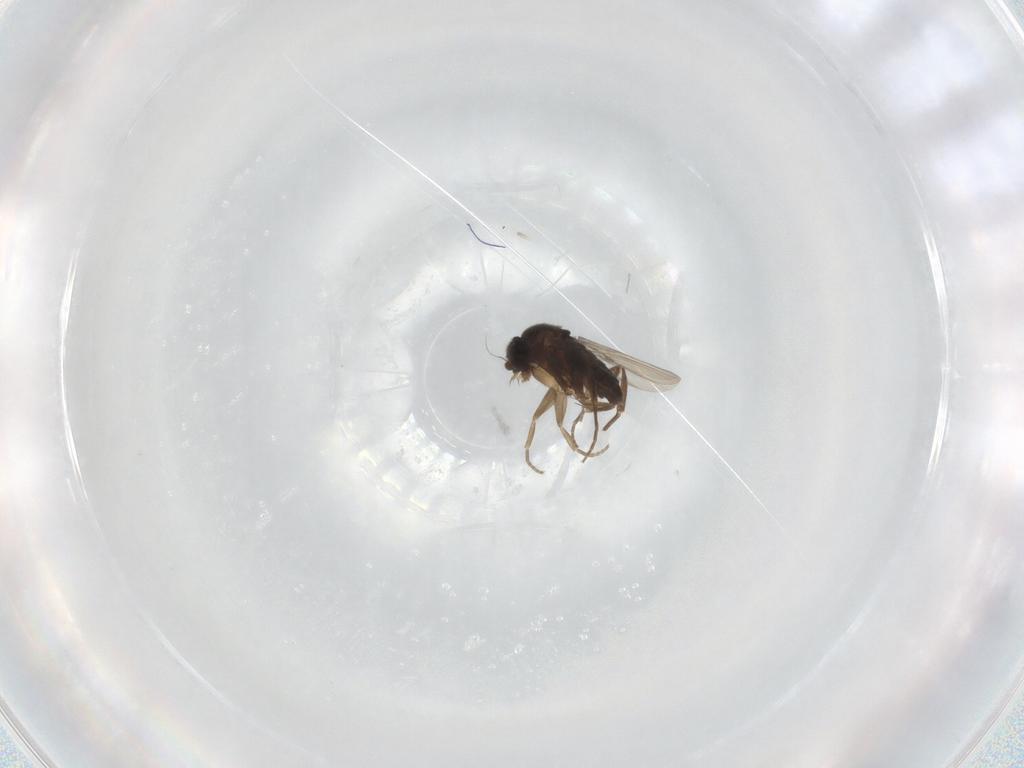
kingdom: Animalia
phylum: Arthropoda
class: Insecta
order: Diptera
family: Phoridae
